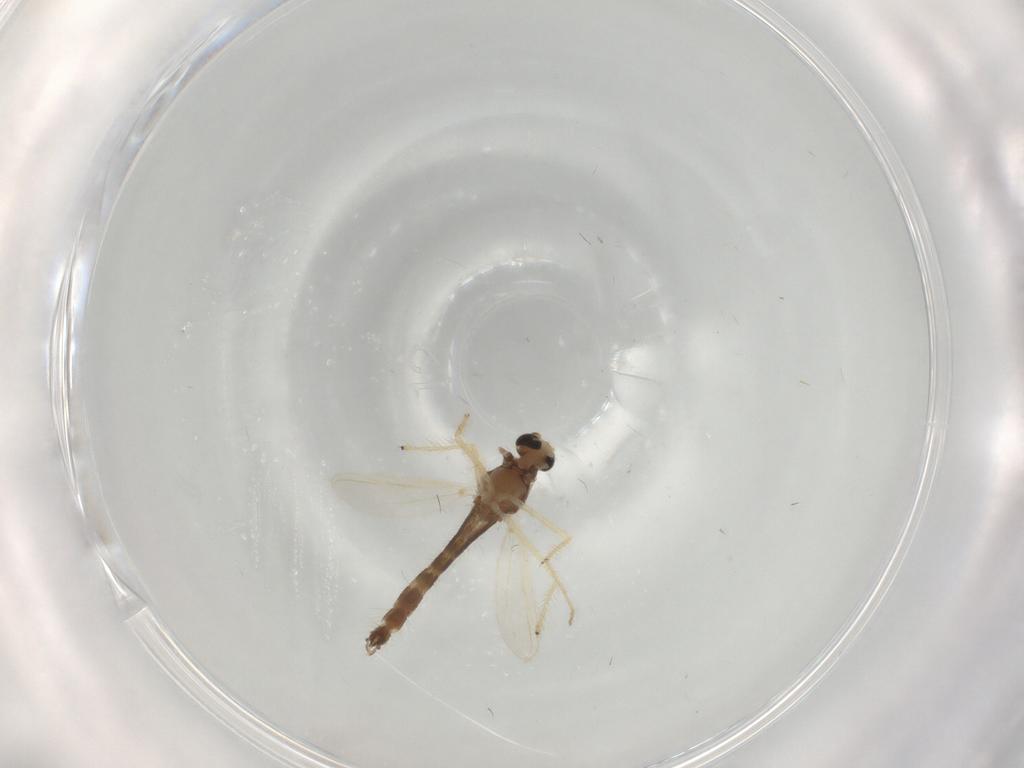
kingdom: Animalia
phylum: Arthropoda
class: Insecta
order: Diptera
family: Chironomidae
